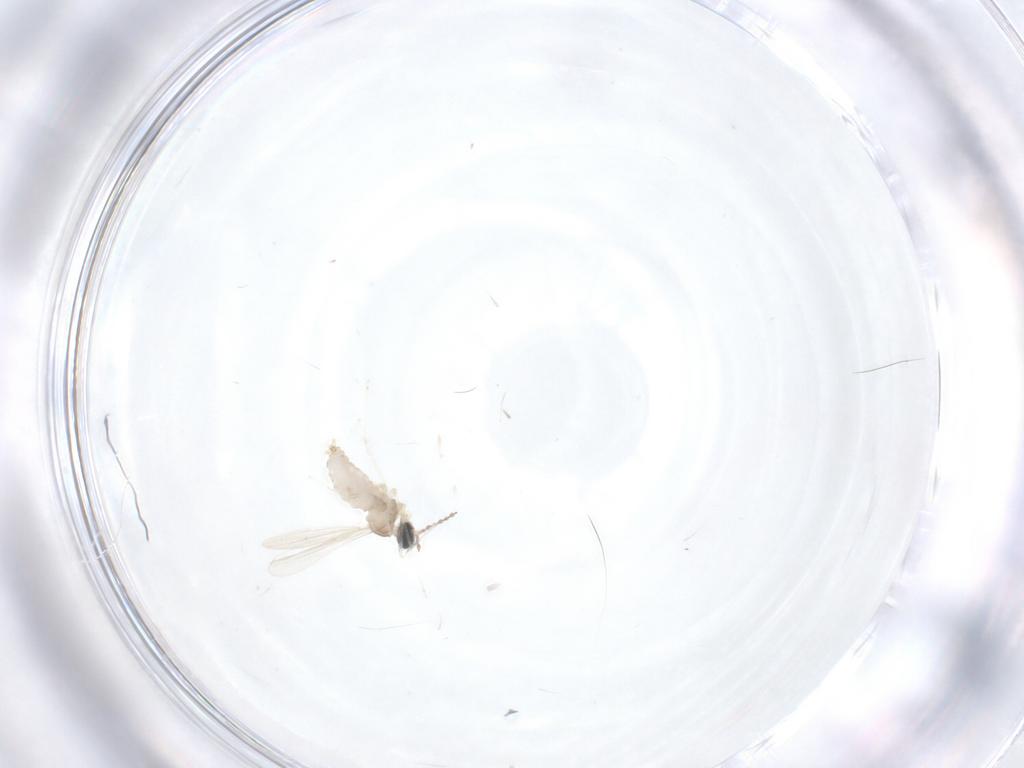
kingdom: Animalia
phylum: Arthropoda
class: Insecta
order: Diptera
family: Cecidomyiidae
